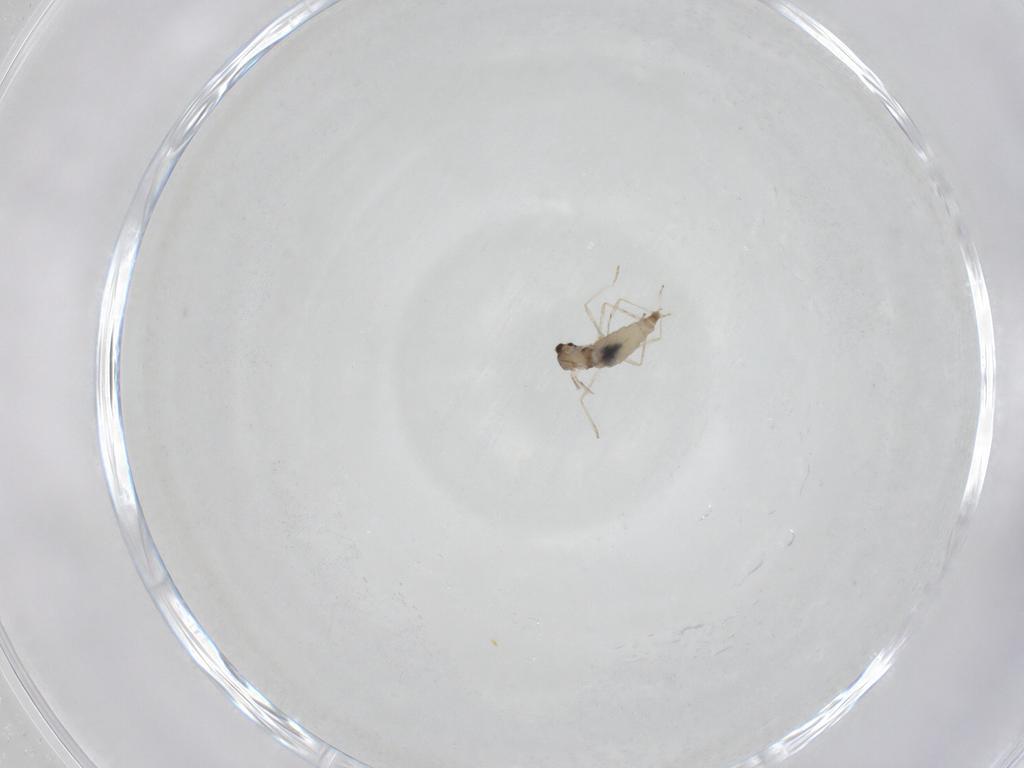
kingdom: Animalia
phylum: Arthropoda
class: Insecta
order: Diptera
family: Cecidomyiidae
